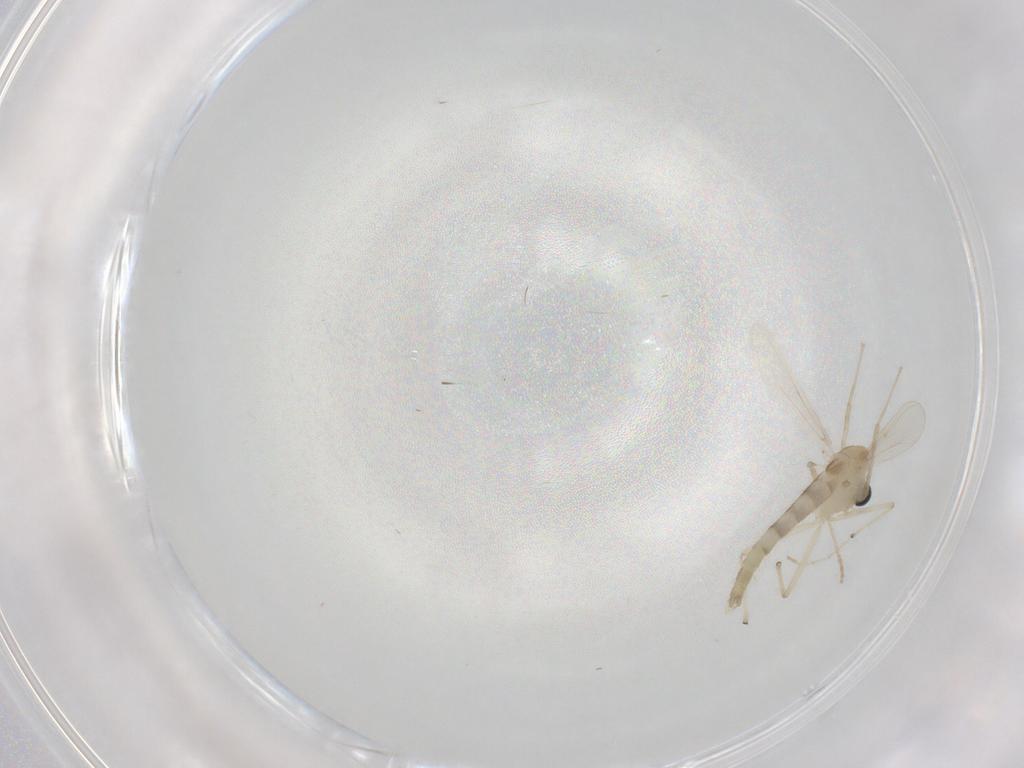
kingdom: Animalia
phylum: Arthropoda
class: Insecta
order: Diptera
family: Chironomidae
